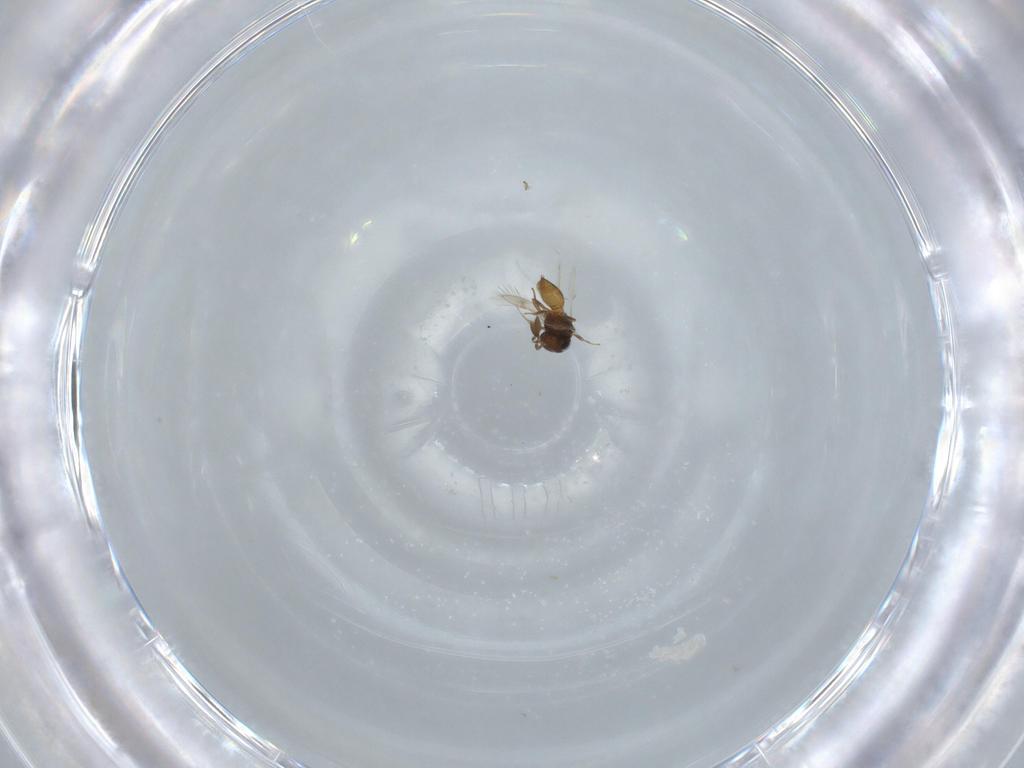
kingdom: Animalia
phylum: Arthropoda
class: Insecta
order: Hymenoptera
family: Scelionidae
